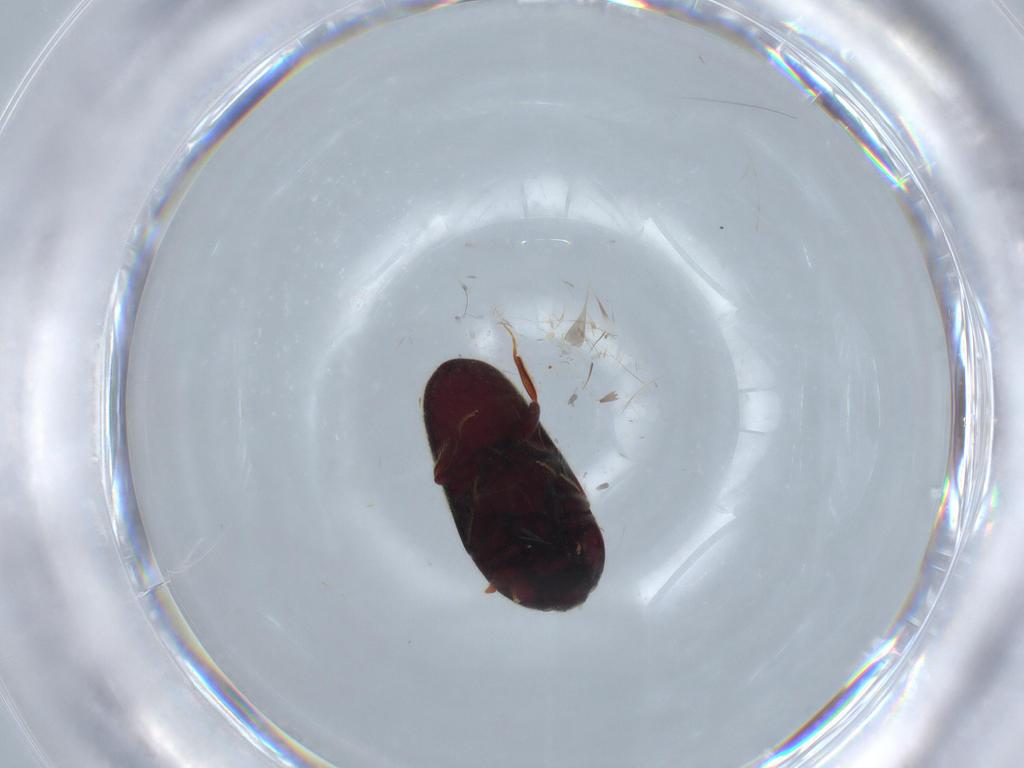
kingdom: Animalia
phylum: Arthropoda
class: Insecta
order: Coleoptera
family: Throscidae
